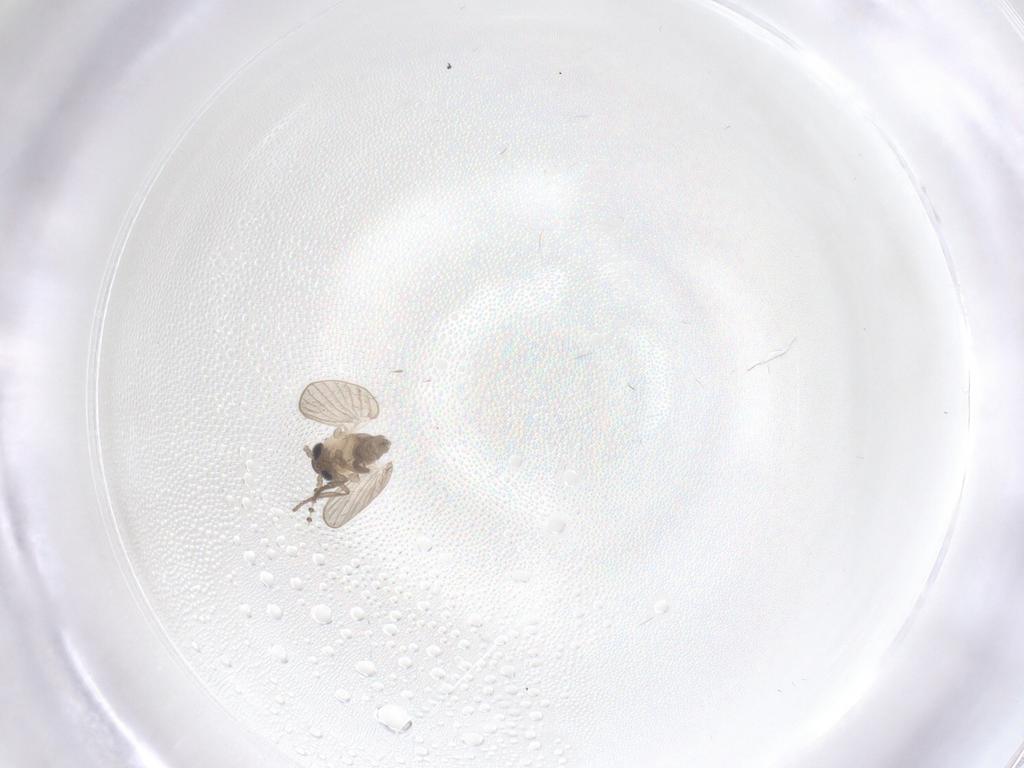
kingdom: Animalia
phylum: Arthropoda
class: Insecta
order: Diptera
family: Psychodidae
